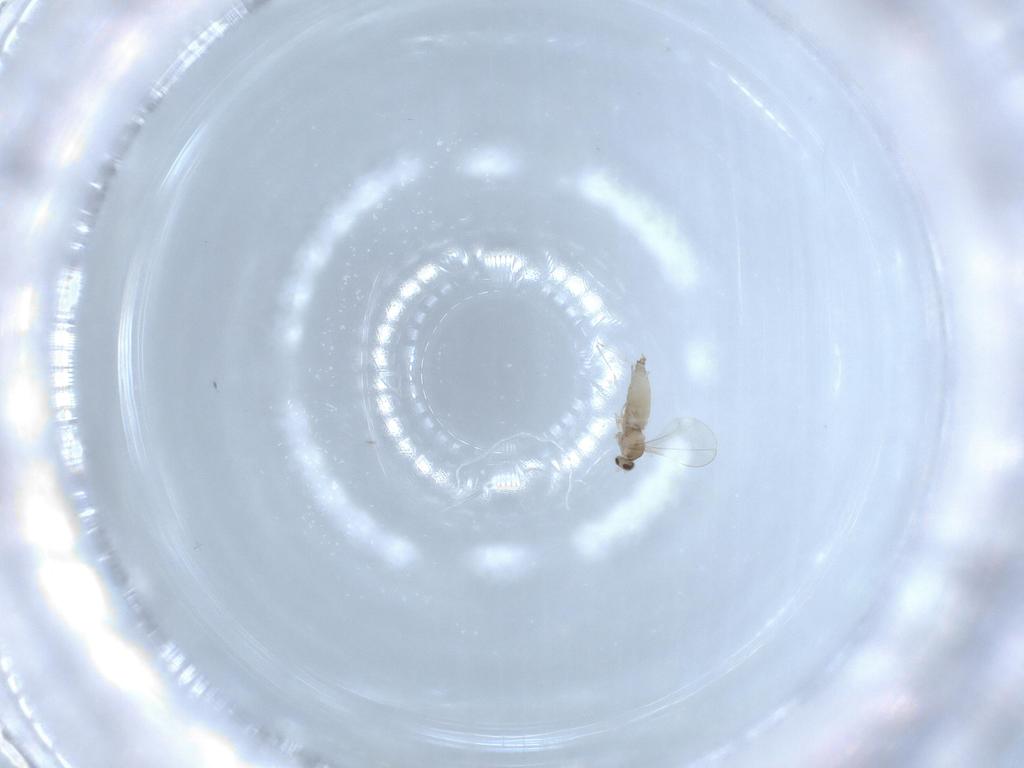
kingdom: Animalia
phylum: Arthropoda
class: Insecta
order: Diptera
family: Cecidomyiidae
